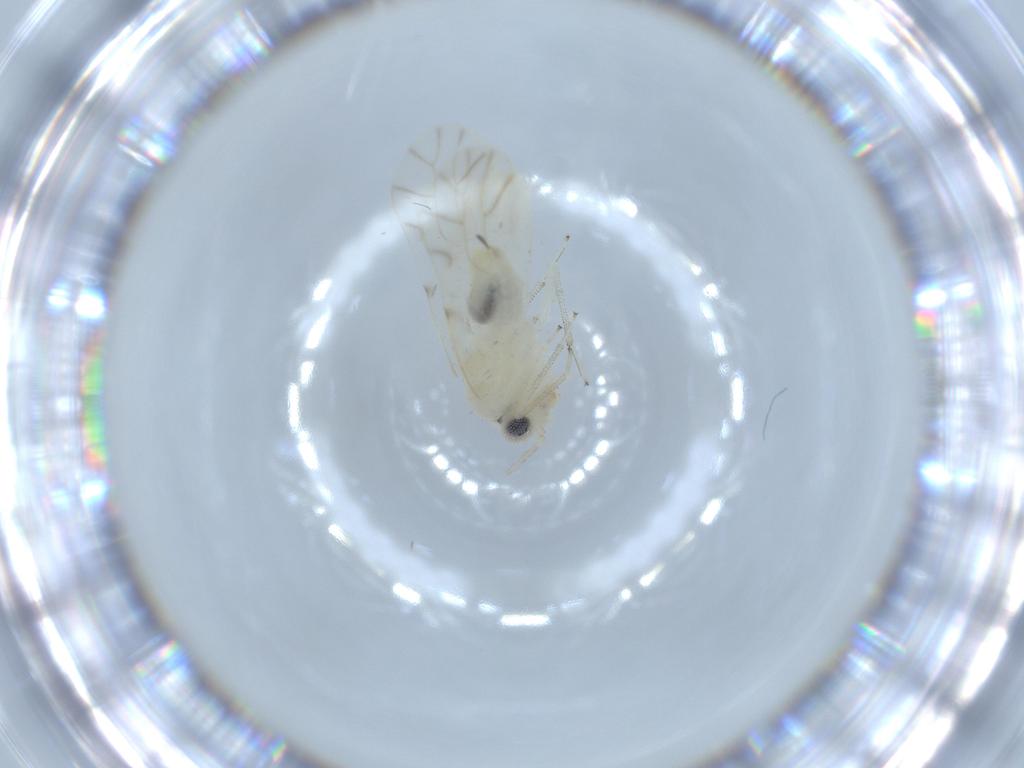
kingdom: Animalia
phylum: Arthropoda
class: Insecta
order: Psocodea
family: Caeciliusidae
